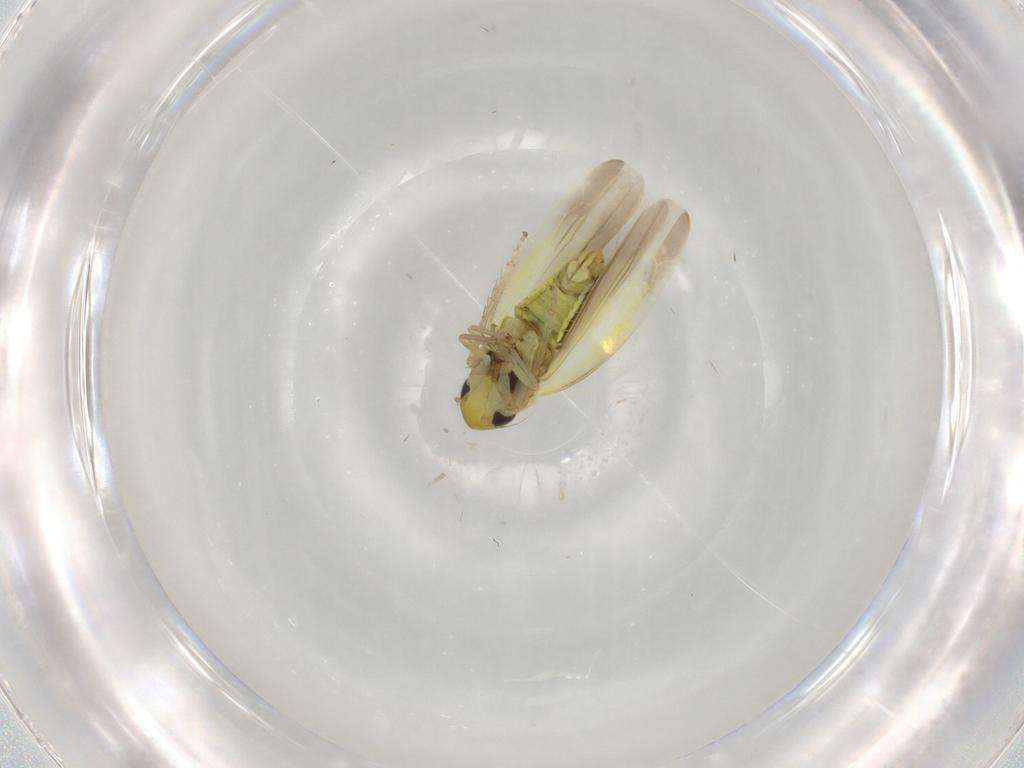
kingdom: Animalia
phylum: Arthropoda
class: Insecta
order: Hemiptera
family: Cicadellidae
